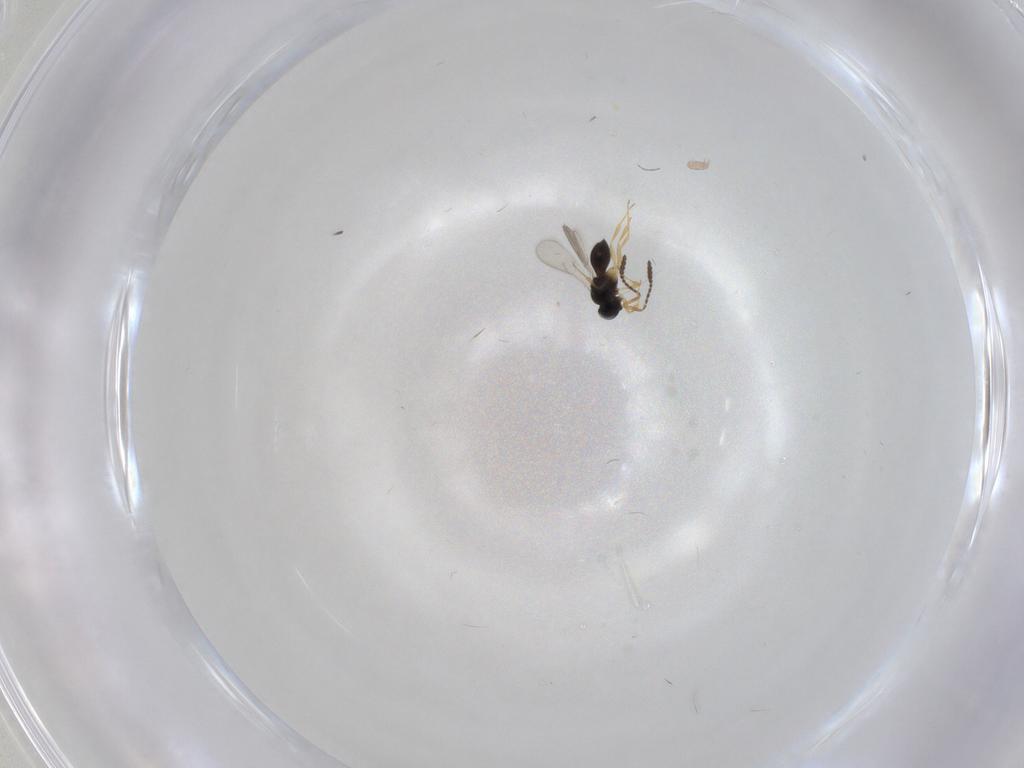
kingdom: Animalia
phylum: Arthropoda
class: Insecta
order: Hymenoptera
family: Scelionidae
